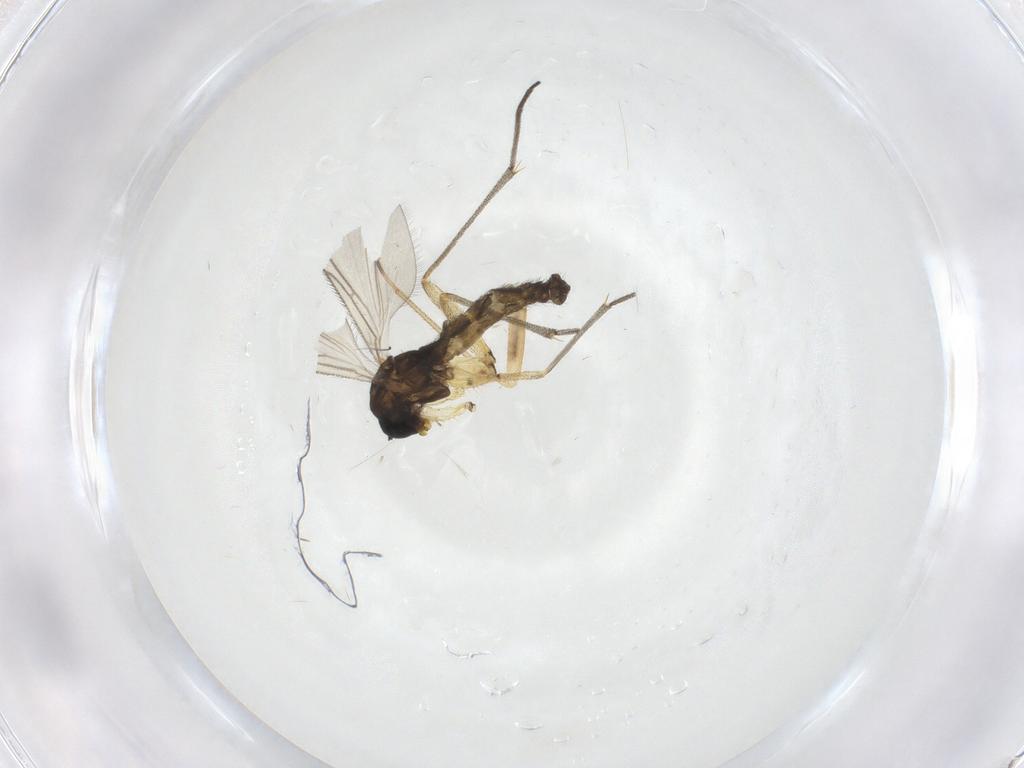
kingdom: Animalia
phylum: Arthropoda
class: Insecta
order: Diptera
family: Sciaridae
